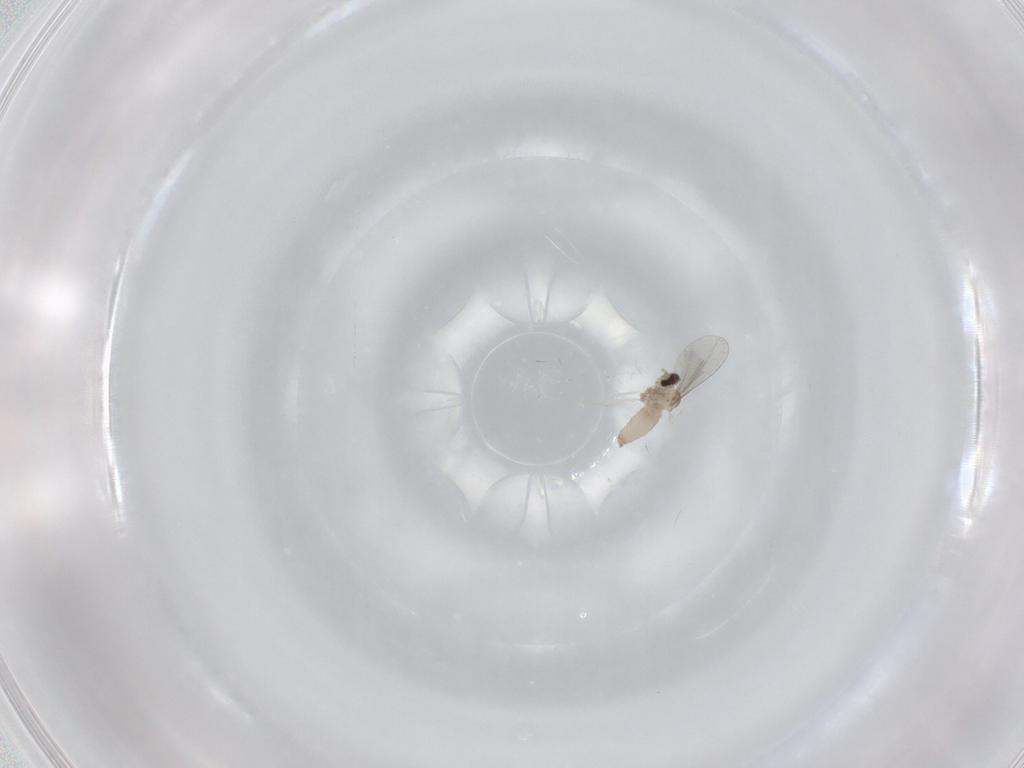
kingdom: Animalia
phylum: Arthropoda
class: Insecta
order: Diptera
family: Cecidomyiidae
